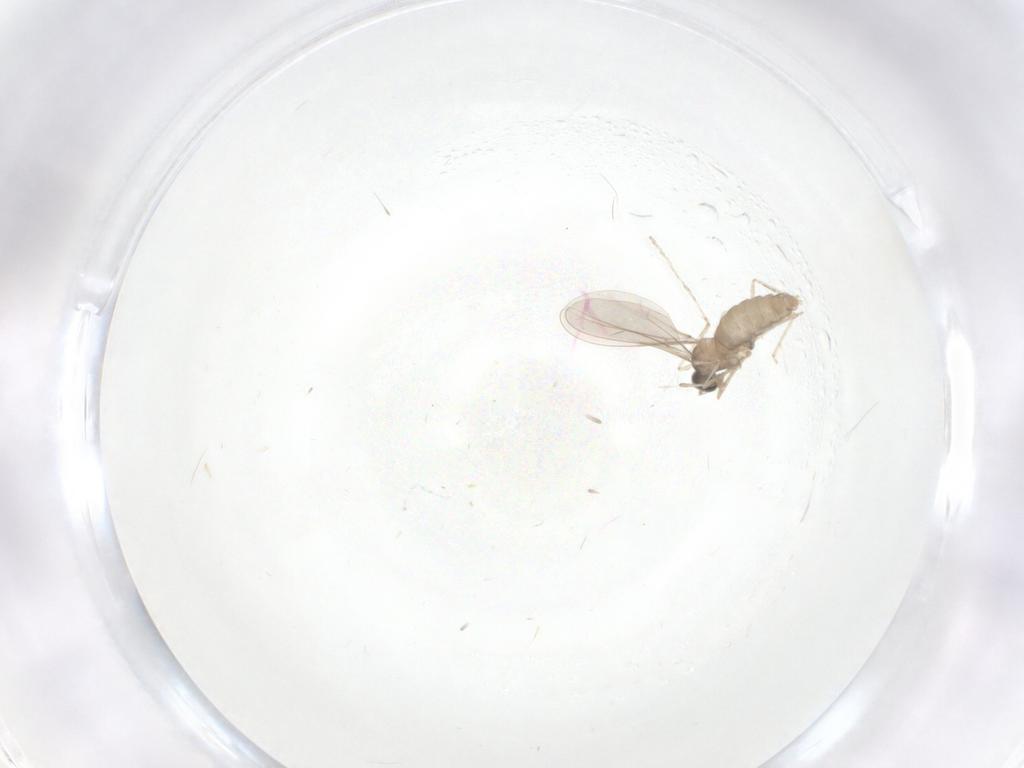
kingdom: Animalia
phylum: Arthropoda
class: Insecta
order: Diptera
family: Cecidomyiidae
